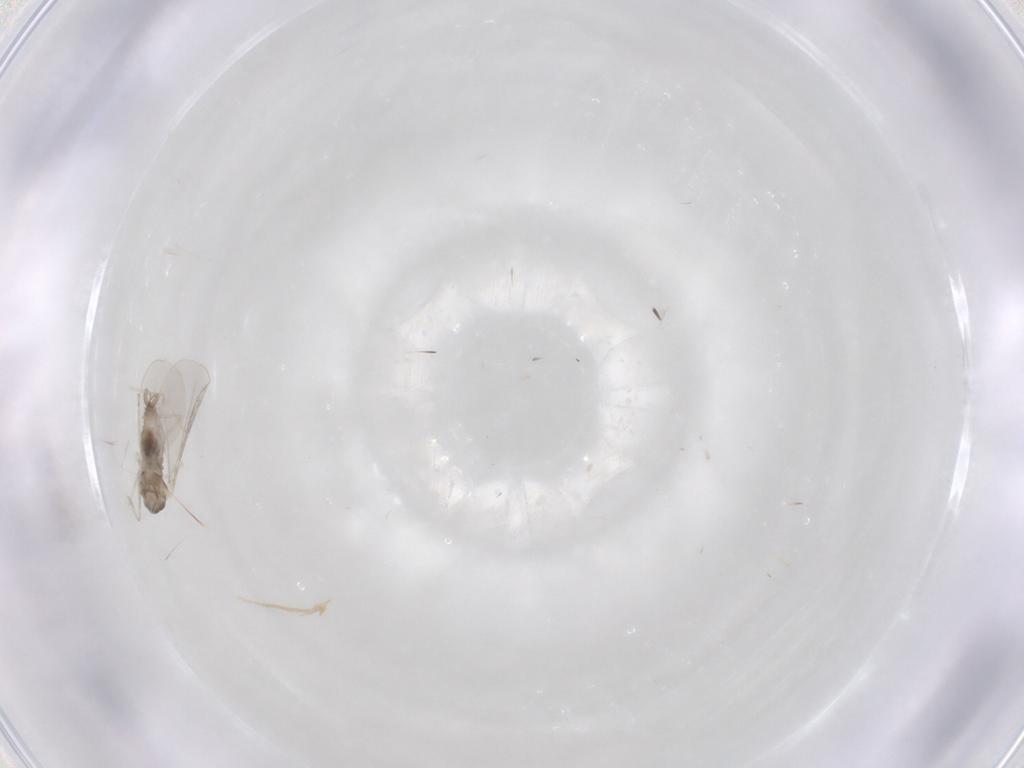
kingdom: Animalia
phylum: Arthropoda
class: Insecta
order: Diptera
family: Cecidomyiidae
